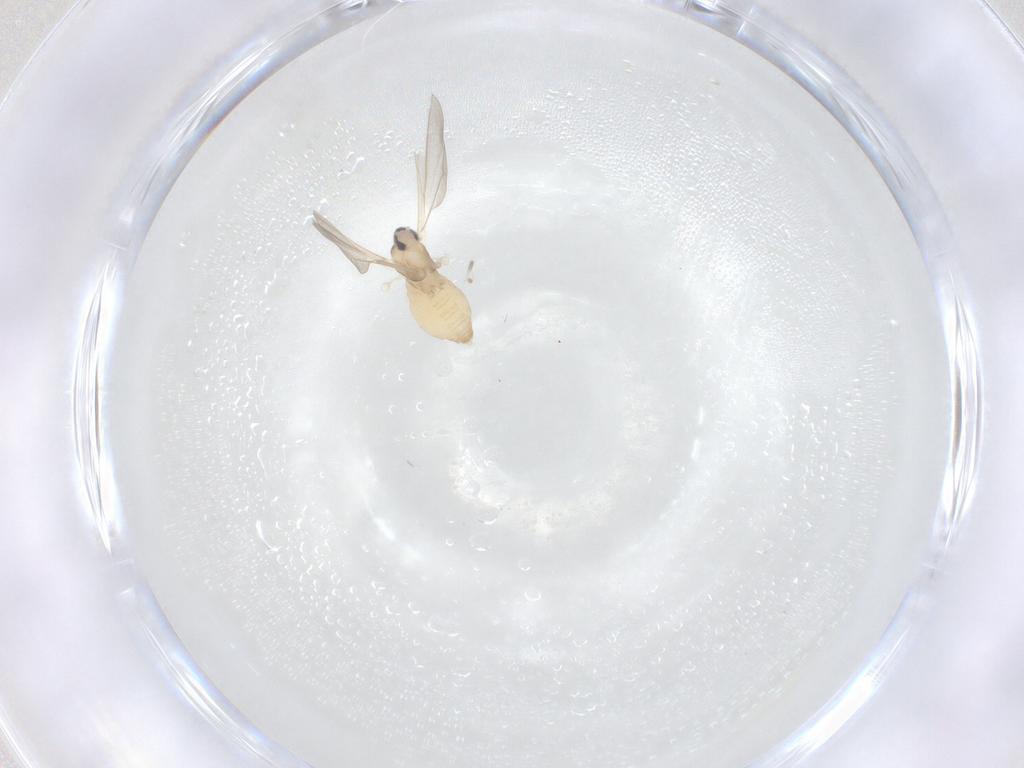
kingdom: Animalia
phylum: Arthropoda
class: Insecta
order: Diptera
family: Cecidomyiidae
